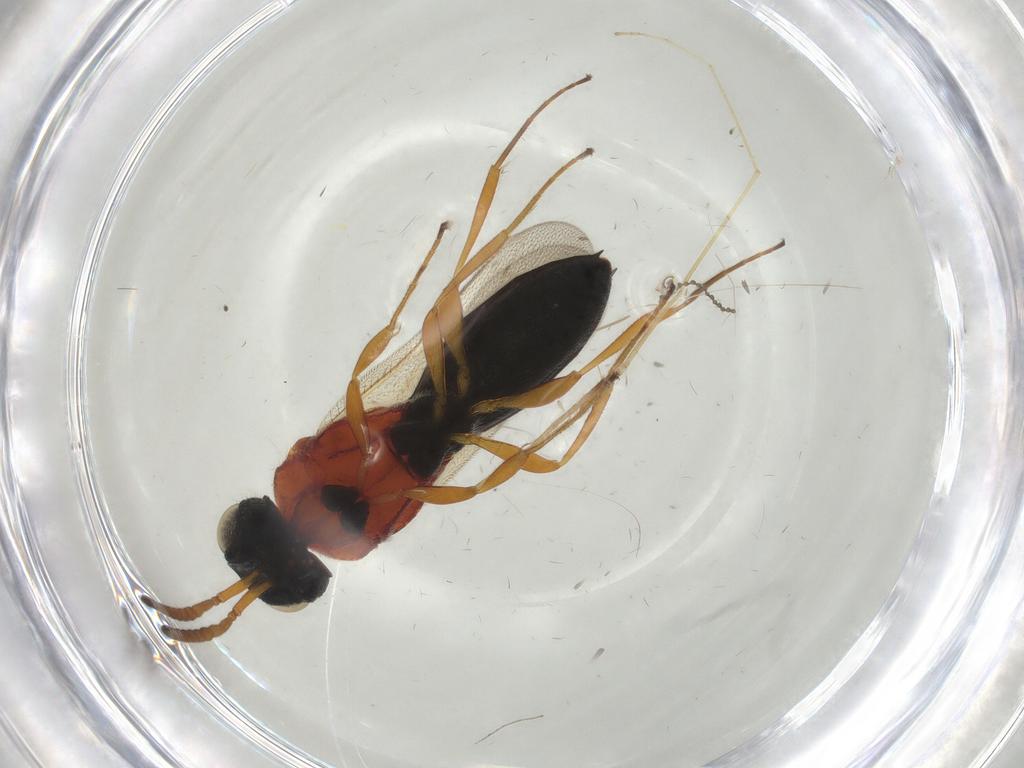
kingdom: Animalia
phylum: Arthropoda
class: Insecta
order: Hymenoptera
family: Scelionidae
